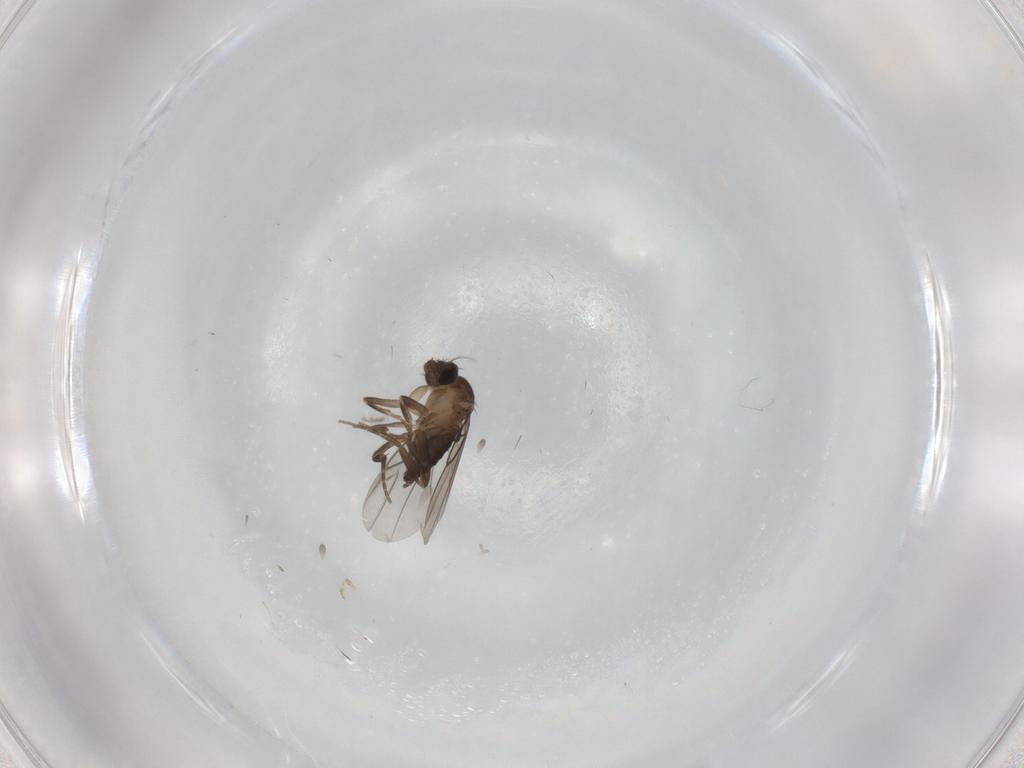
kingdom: Animalia
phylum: Arthropoda
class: Insecta
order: Diptera
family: Phoridae
